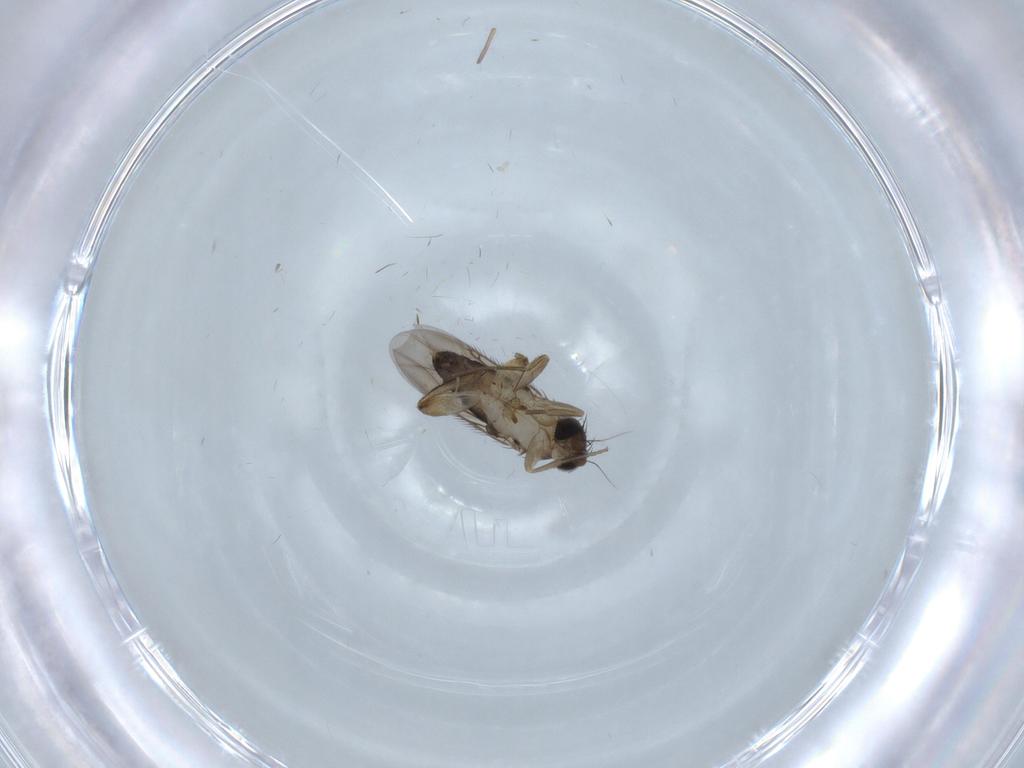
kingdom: Animalia
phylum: Arthropoda
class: Insecta
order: Diptera
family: Phoridae
